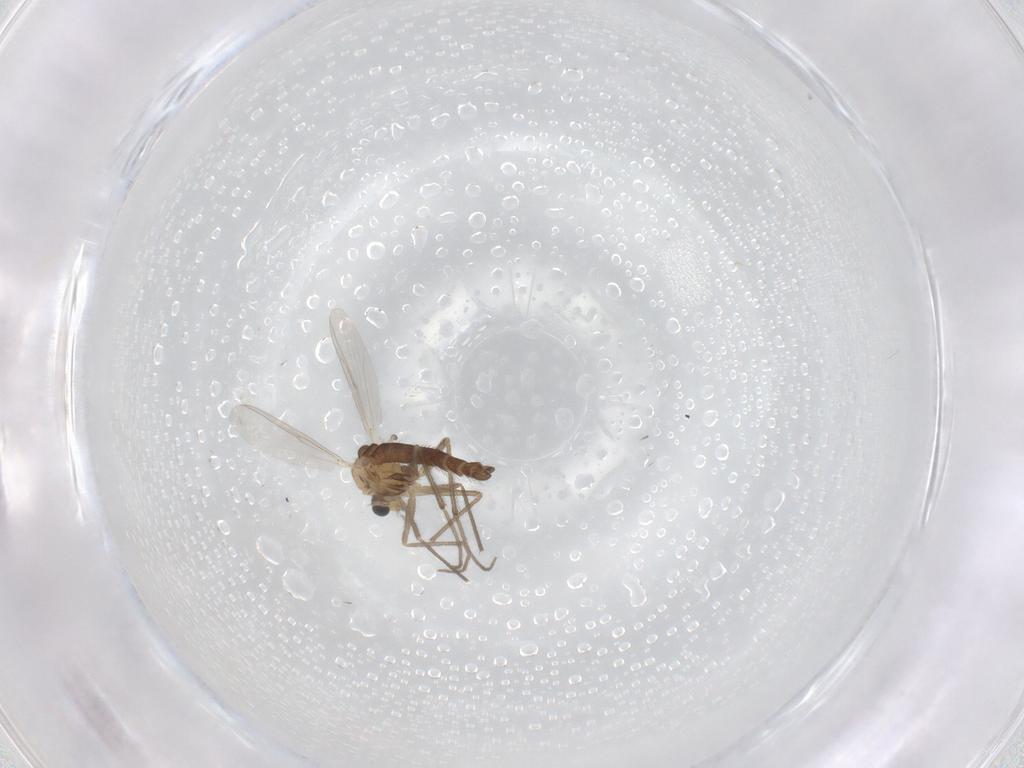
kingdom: Animalia
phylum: Arthropoda
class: Insecta
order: Diptera
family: Chironomidae
